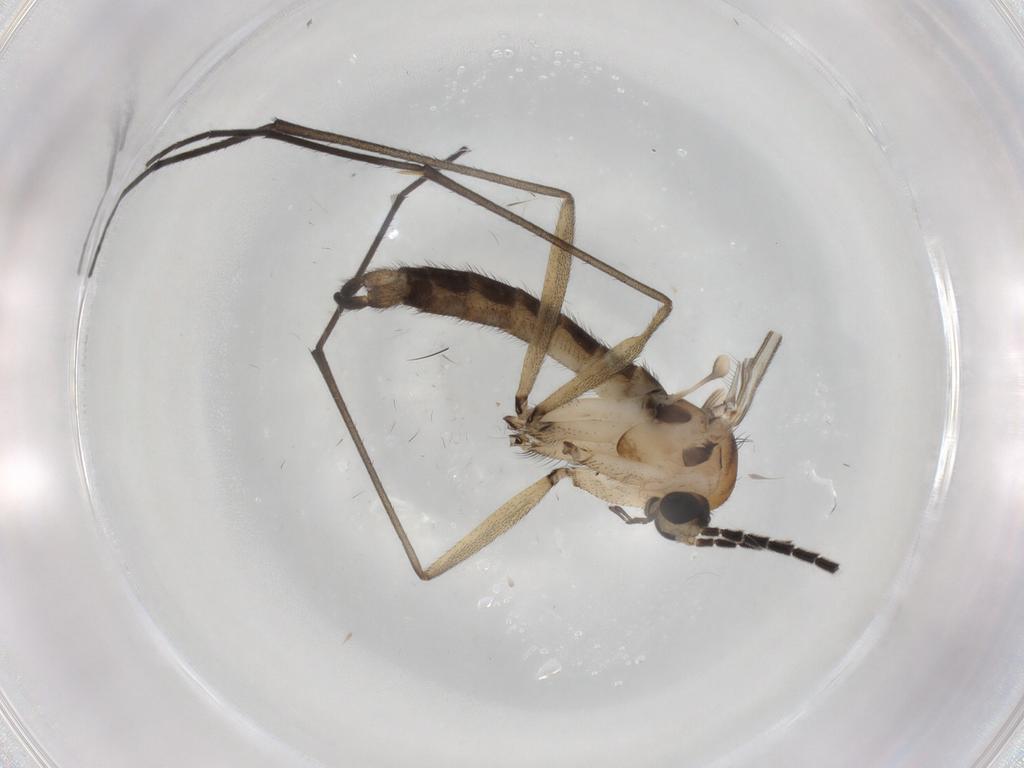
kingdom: Animalia
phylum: Arthropoda
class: Insecta
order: Diptera
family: Sciaridae
